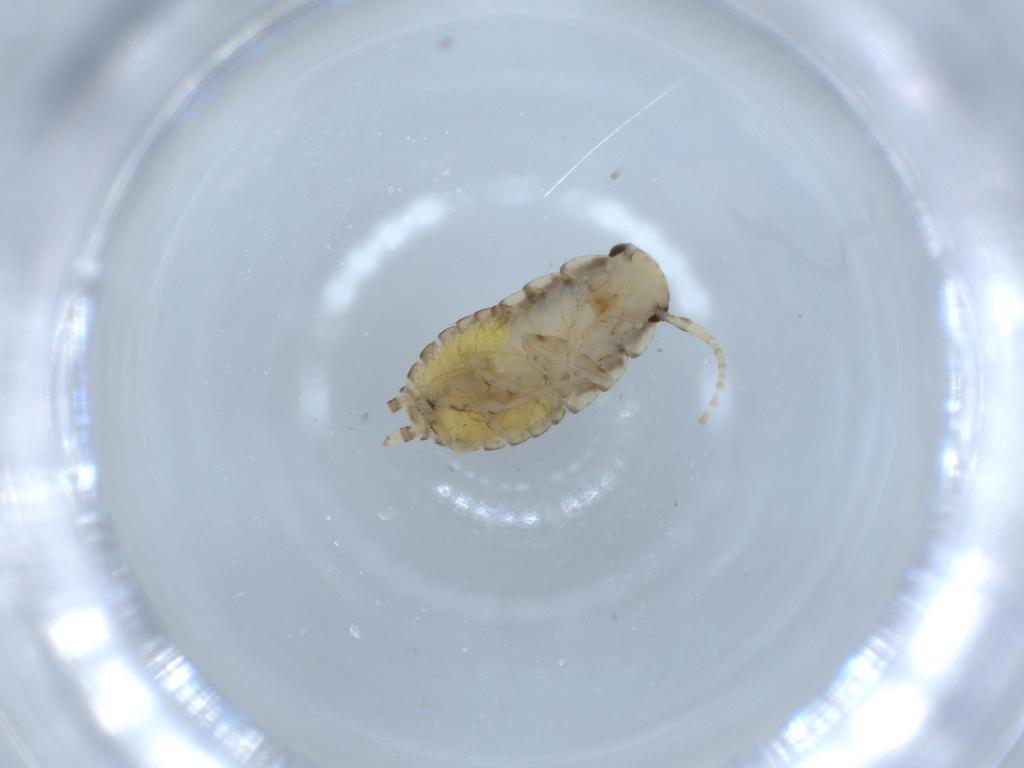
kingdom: Animalia
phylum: Arthropoda
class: Insecta
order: Blattodea
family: Ectobiidae
